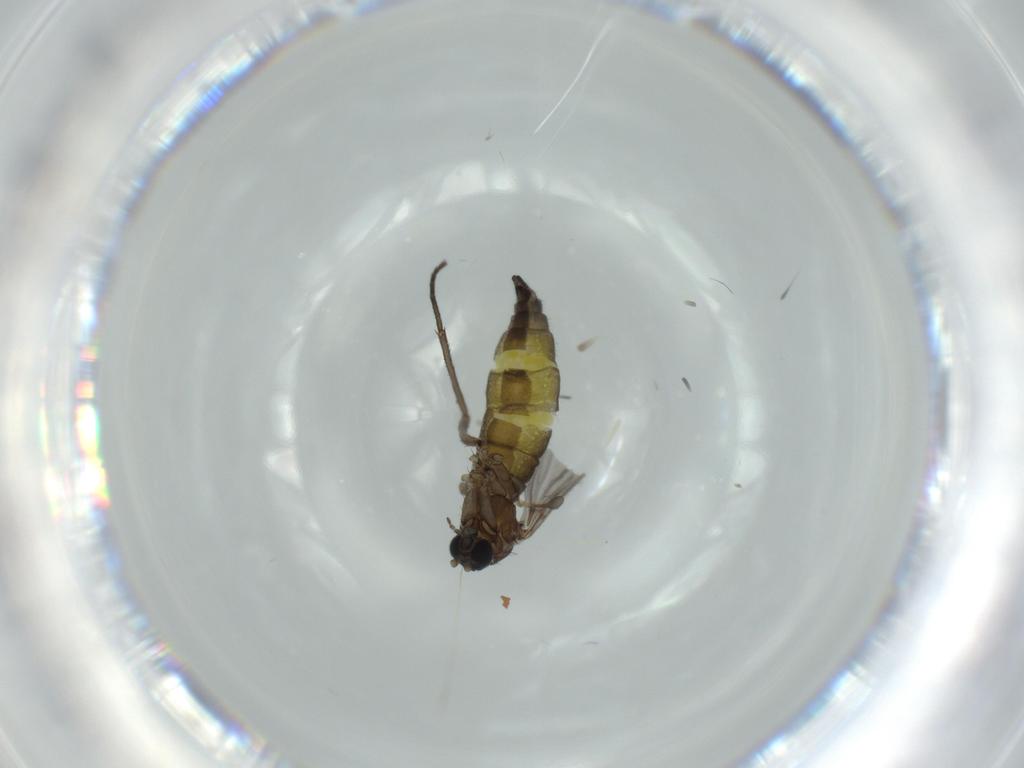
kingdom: Animalia
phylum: Arthropoda
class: Insecta
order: Diptera
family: Sciaridae
